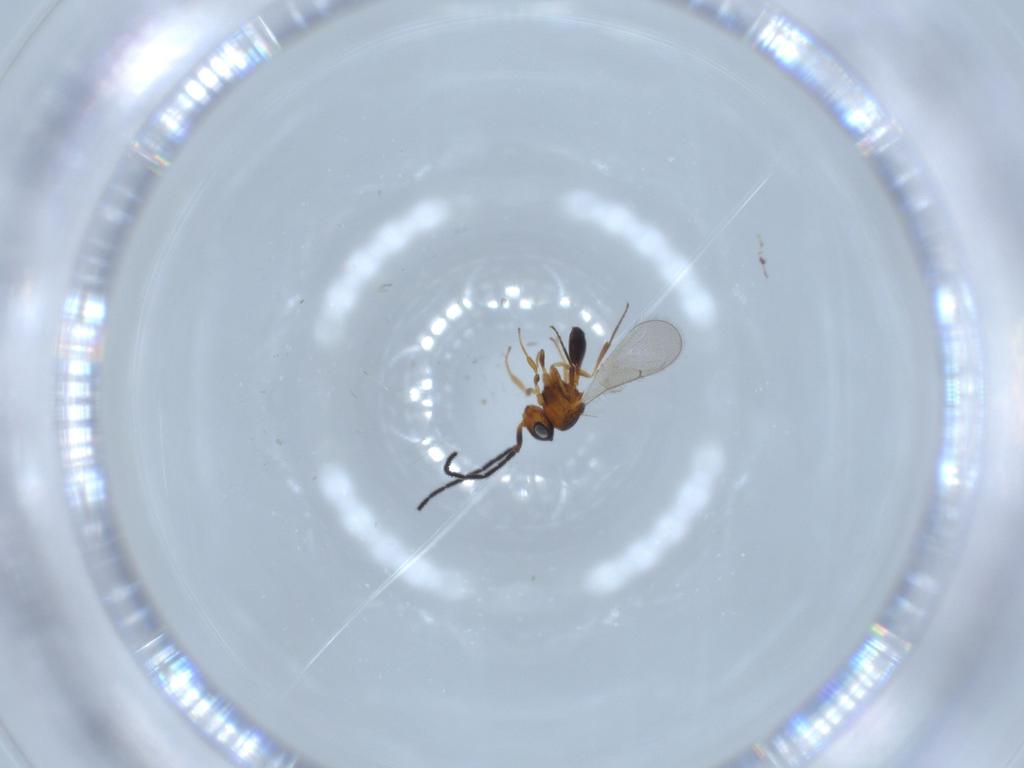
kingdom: Animalia
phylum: Arthropoda
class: Insecta
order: Hymenoptera
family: Scelionidae
